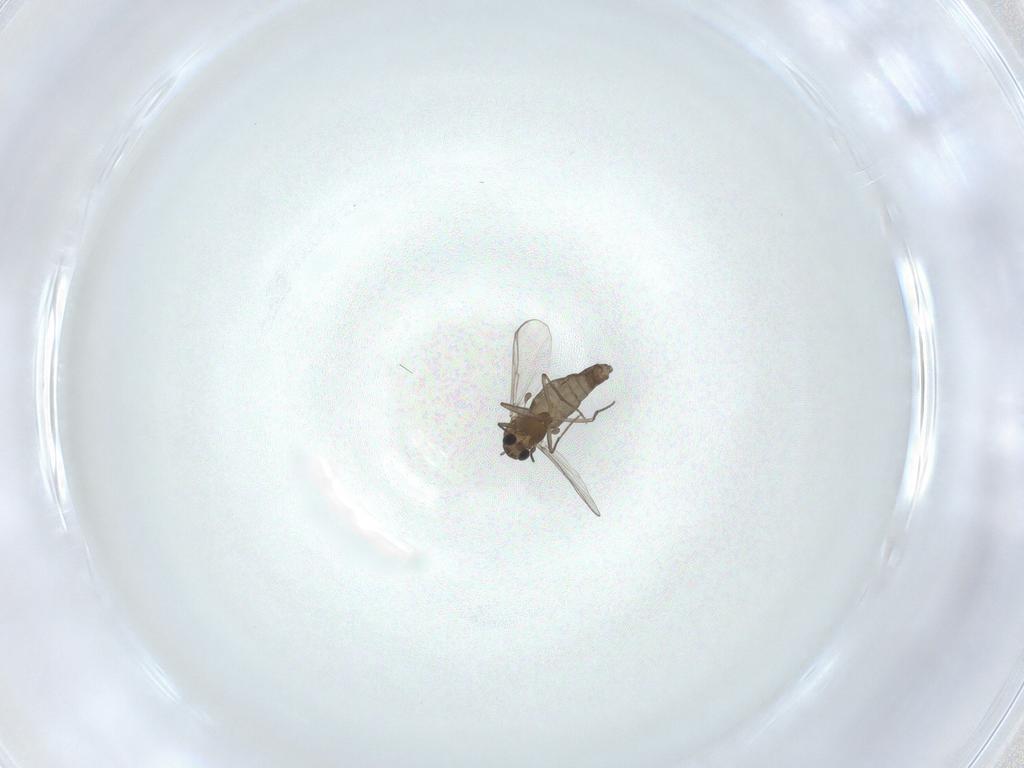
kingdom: Animalia
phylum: Arthropoda
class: Insecta
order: Diptera
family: Chironomidae
